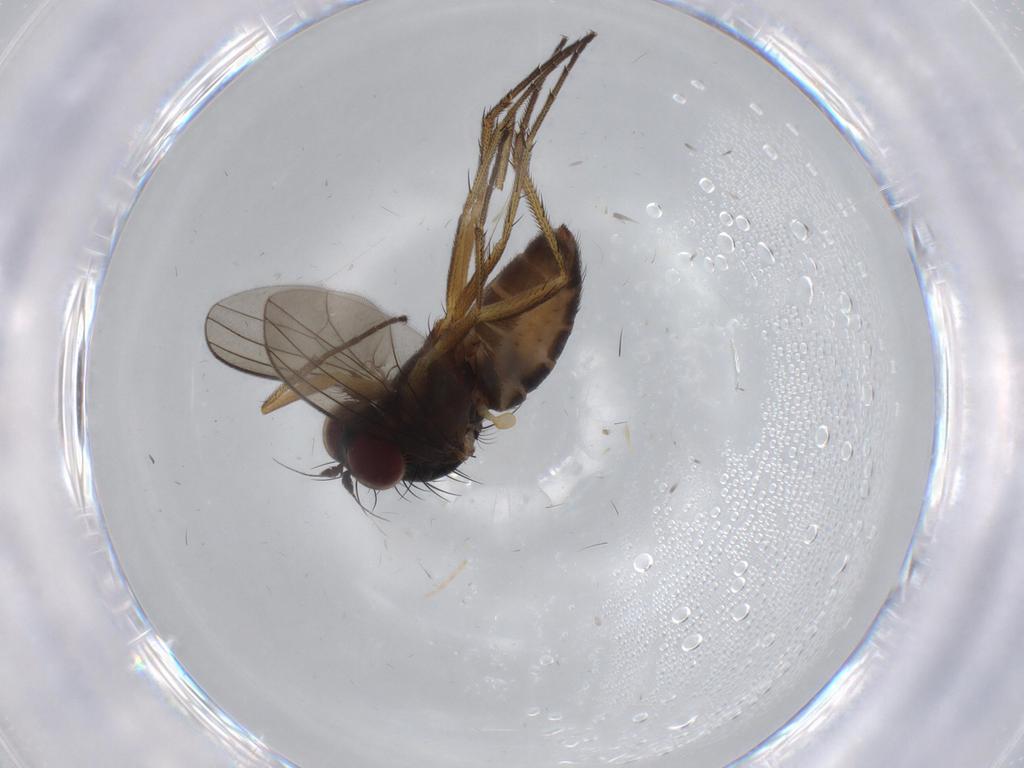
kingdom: Animalia
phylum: Arthropoda
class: Insecta
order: Diptera
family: Dolichopodidae
